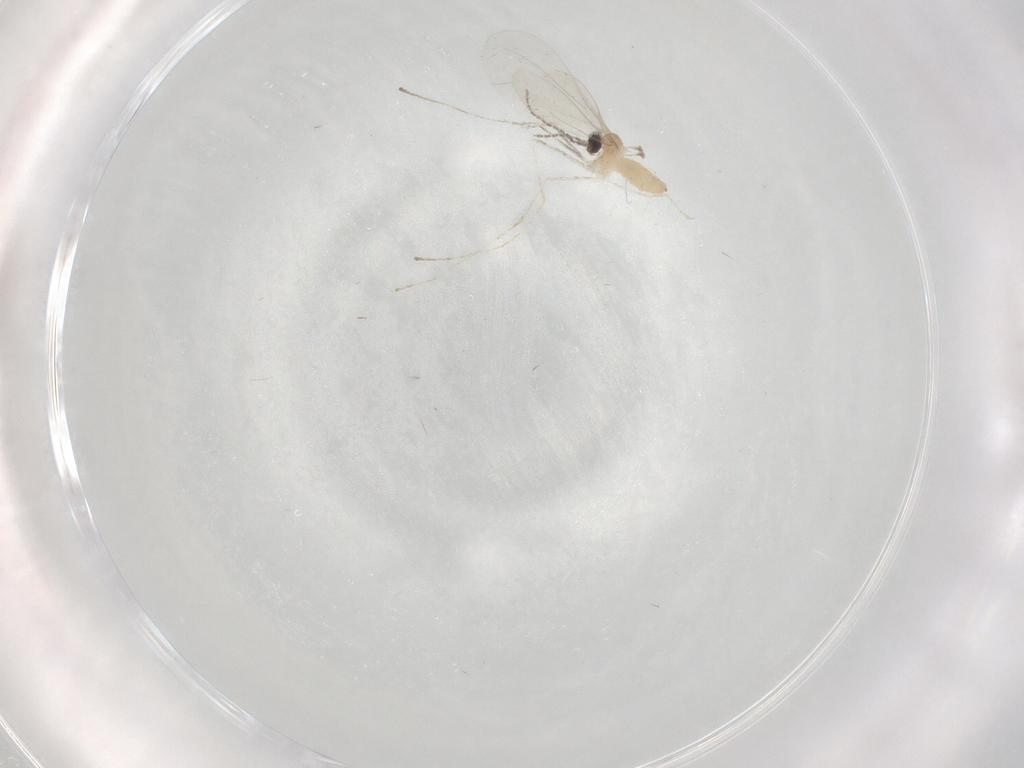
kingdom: Animalia
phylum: Arthropoda
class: Insecta
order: Diptera
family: Cecidomyiidae
